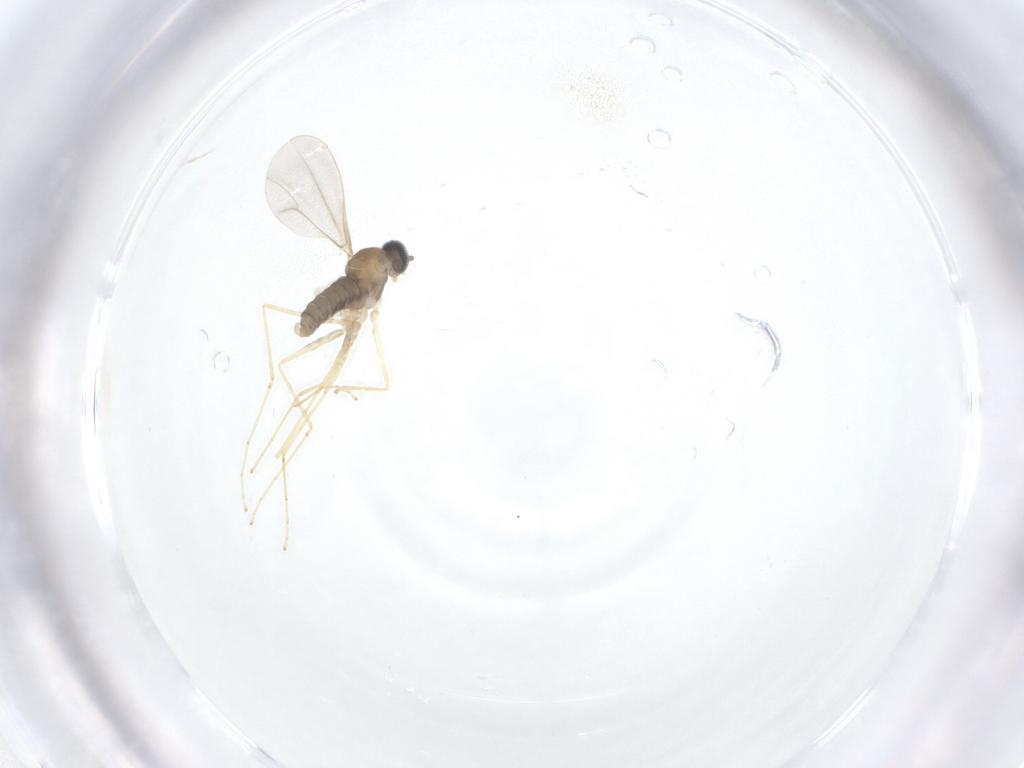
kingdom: Animalia
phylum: Arthropoda
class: Insecta
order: Diptera
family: Cecidomyiidae
